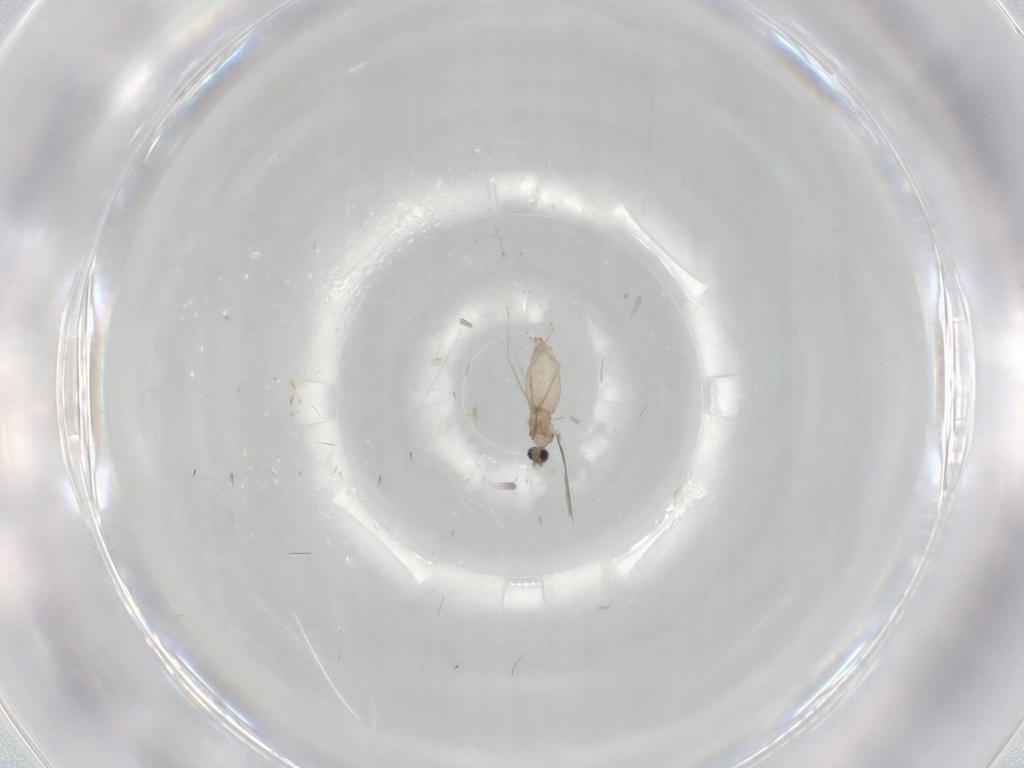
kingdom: Animalia
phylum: Arthropoda
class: Insecta
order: Diptera
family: Cecidomyiidae
